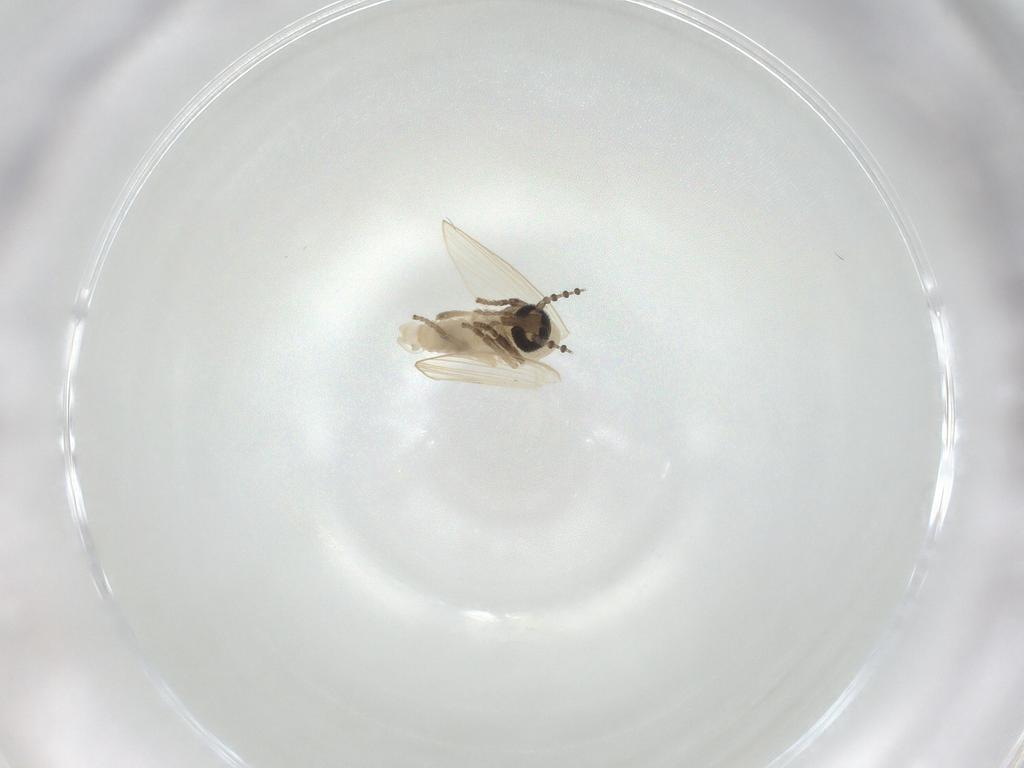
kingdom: Animalia
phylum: Arthropoda
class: Insecta
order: Diptera
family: Psychodidae
